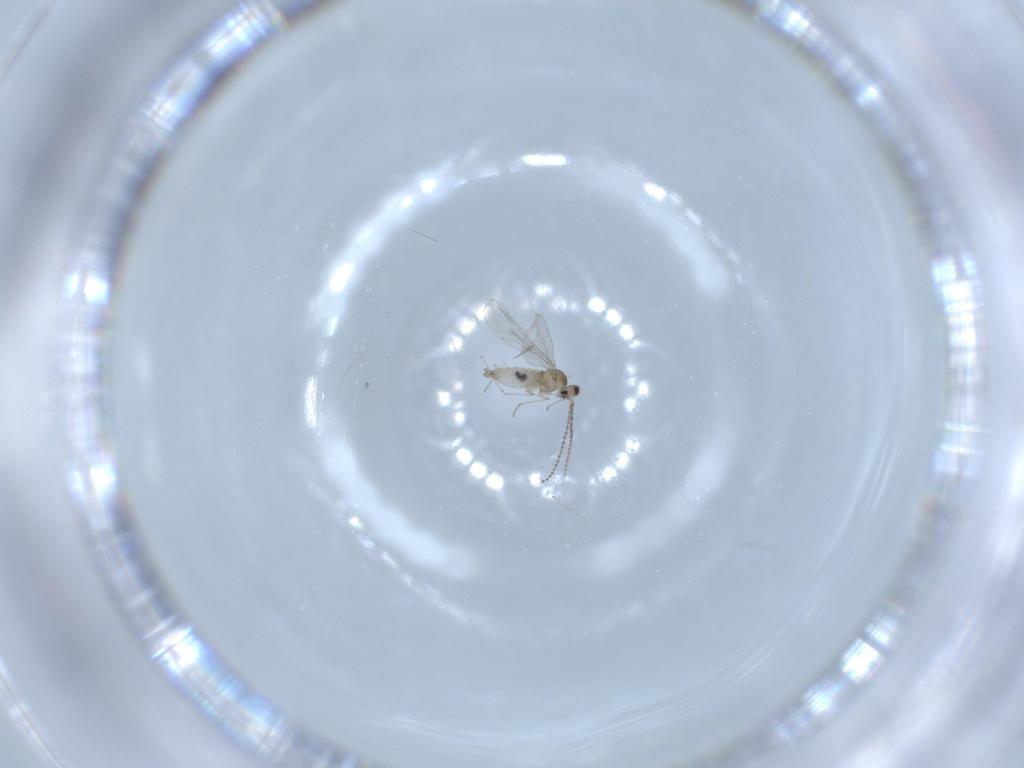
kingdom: Animalia
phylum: Arthropoda
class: Insecta
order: Diptera
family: Cecidomyiidae
